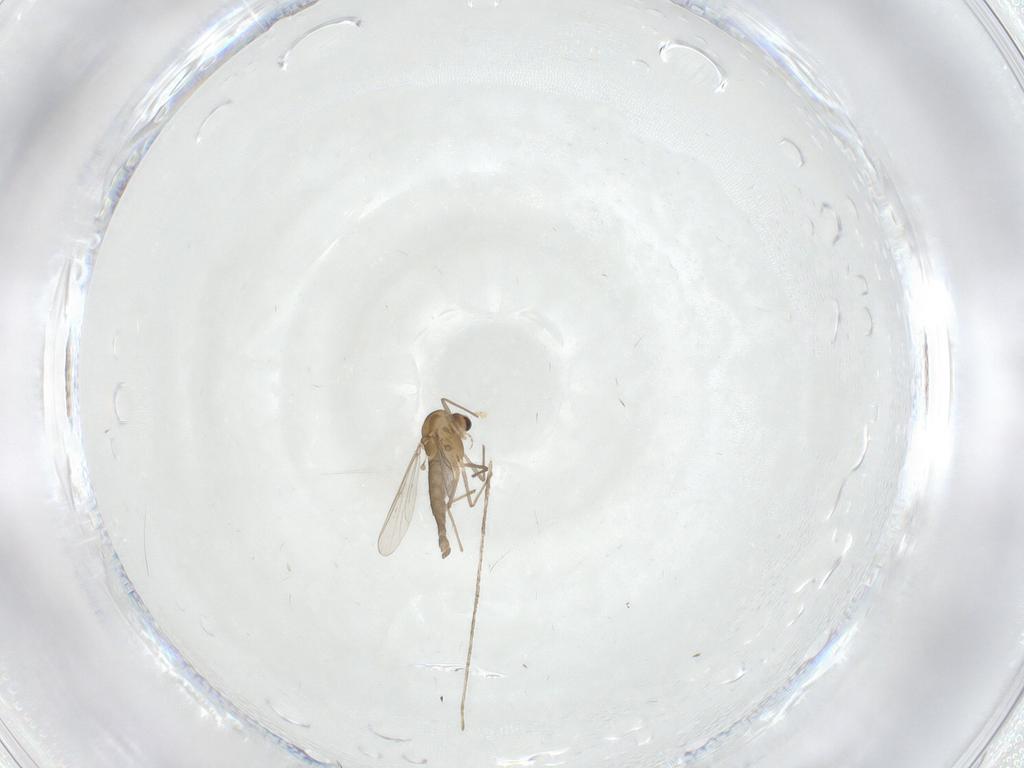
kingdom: Animalia
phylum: Arthropoda
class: Insecta
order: Diptera
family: Chironomidae
